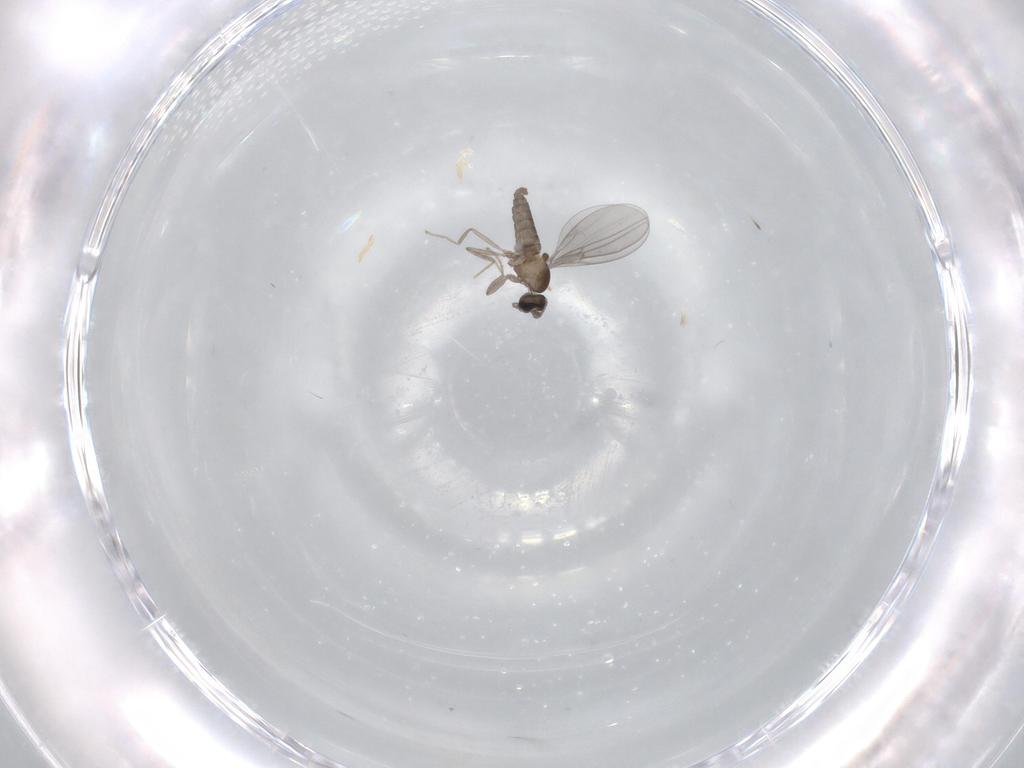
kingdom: Animalia
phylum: Arthropoda
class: Insecta
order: Diptera
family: Cecidomyiidae
